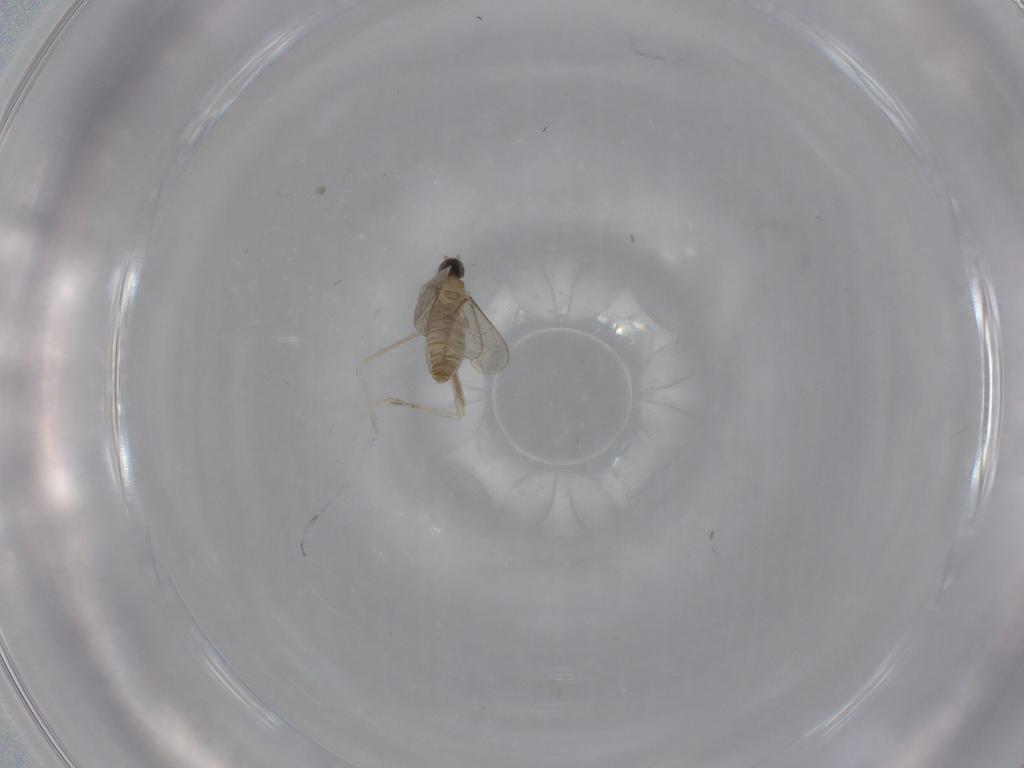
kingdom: Animalia
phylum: Arthropoda
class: Insecta
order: Diptera
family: Cecidomyiidae
